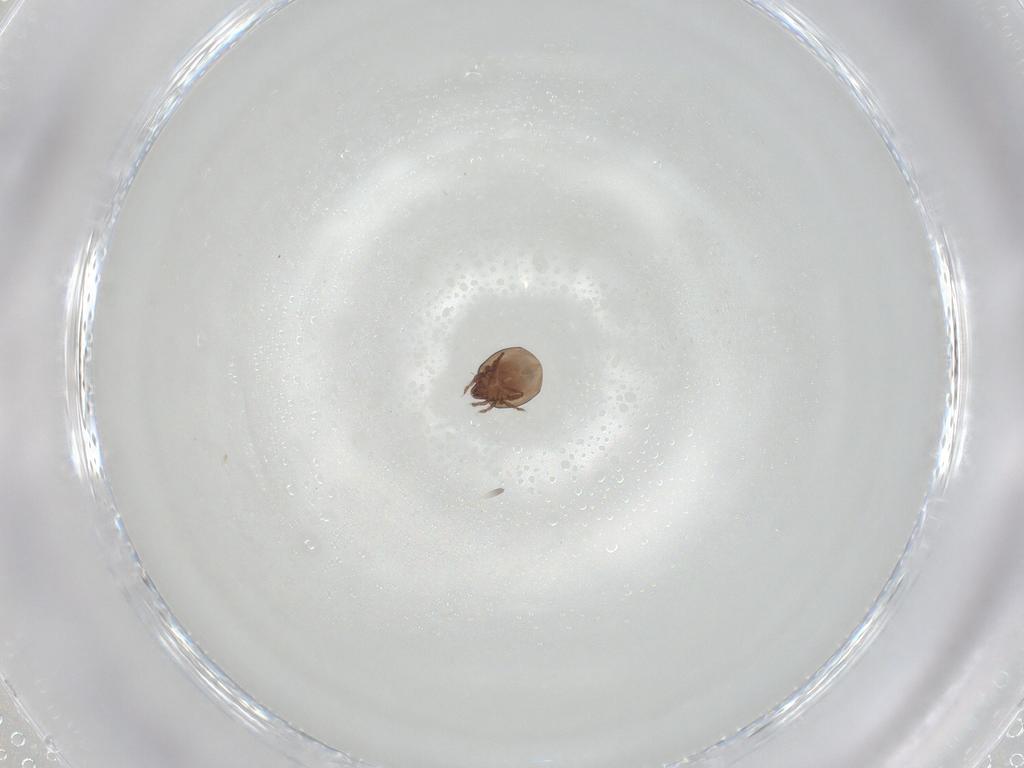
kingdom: Animalia
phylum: Arthropoda
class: Arachnida
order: Sarcoptiformes
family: Galumnidae
